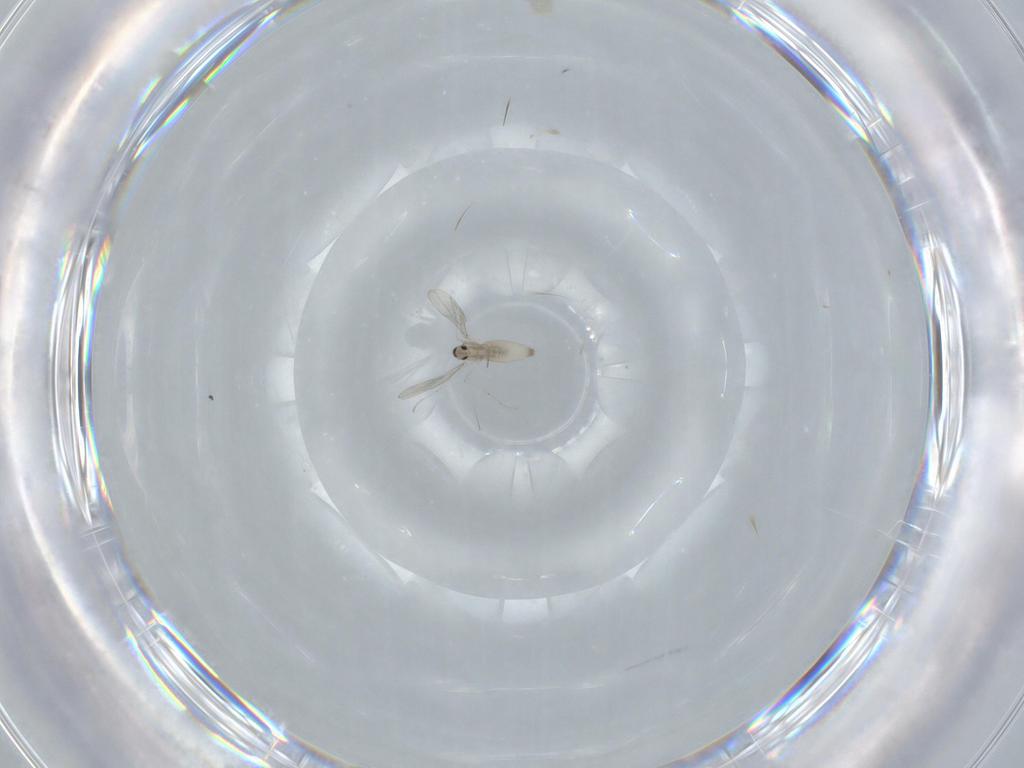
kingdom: Animalia
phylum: Arthropoda
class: Insecta
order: Diptera
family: Cecidomyiidae
